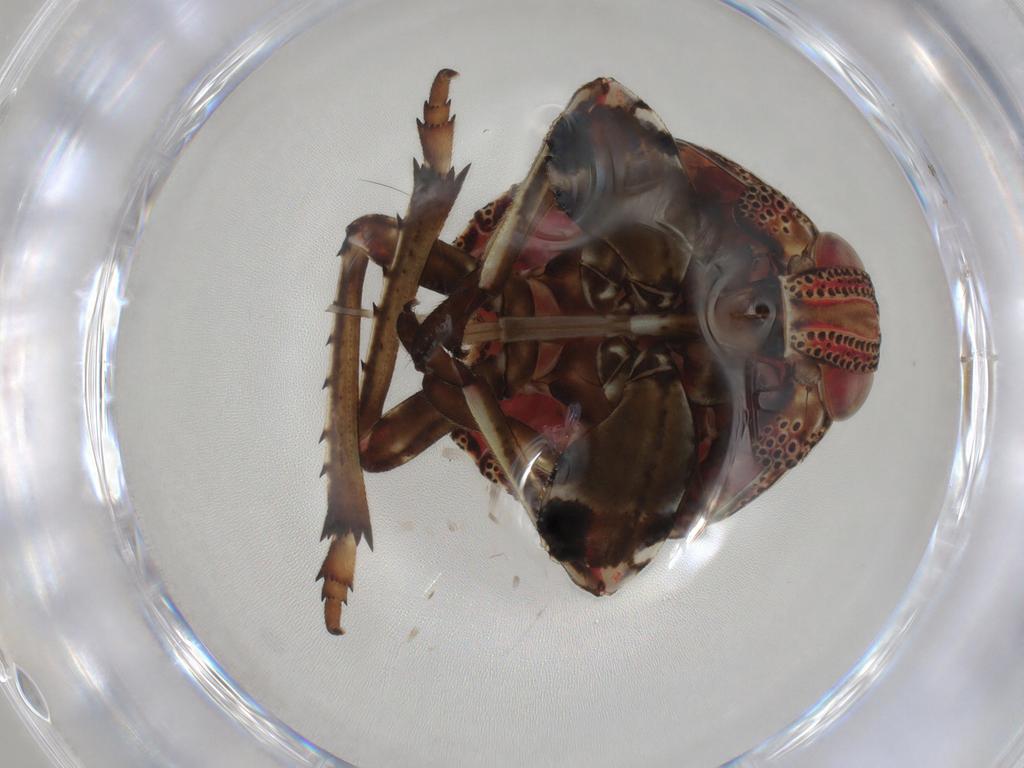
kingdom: Animalia
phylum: Arthropoda
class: Insecta
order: Hemiptera
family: Dictyopharidae
